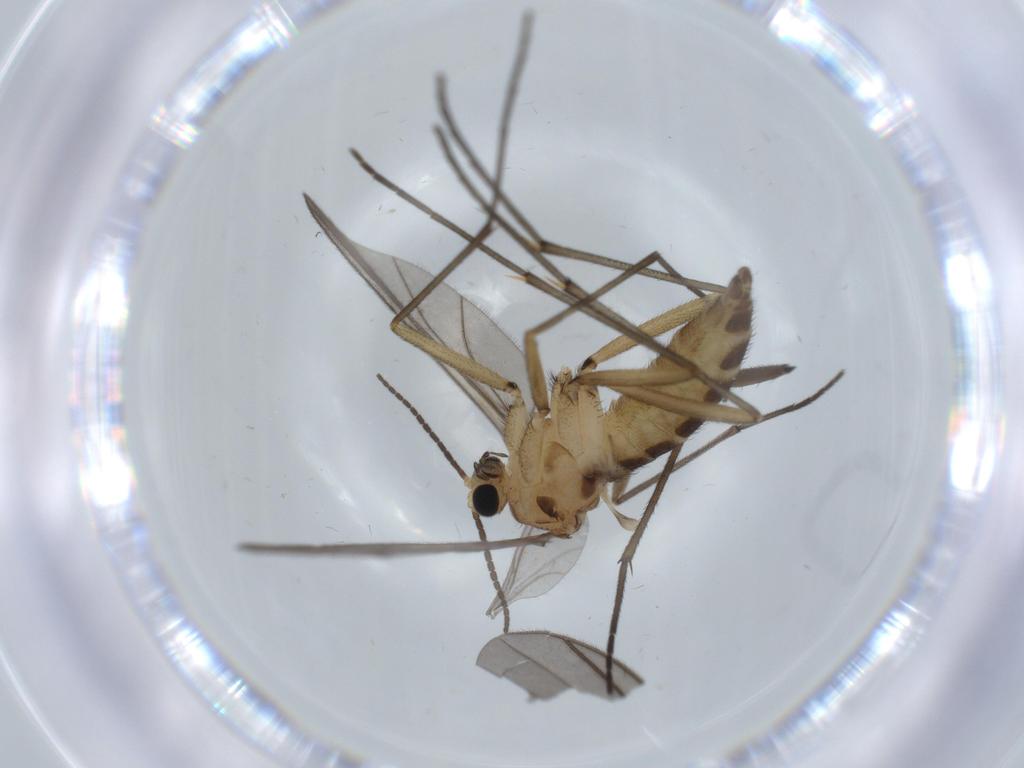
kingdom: Animalia
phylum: Arthropoda
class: Insecta
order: Diptera
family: Sciaridae
